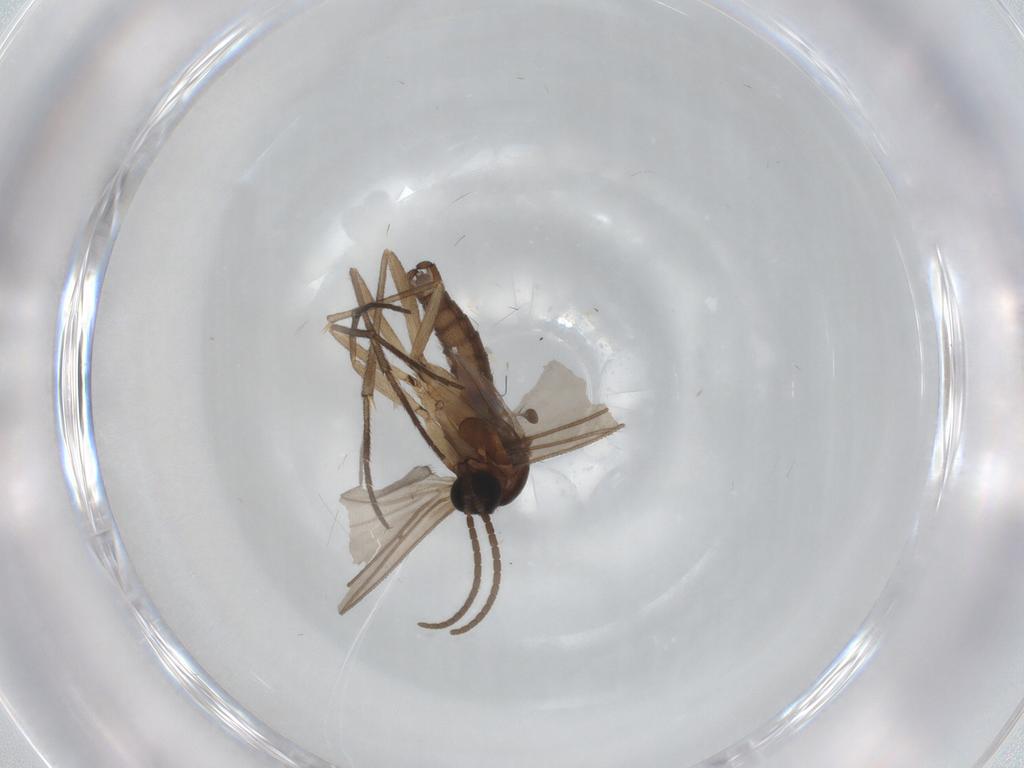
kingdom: Animalia
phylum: Arthropoda
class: Insecta
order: Diptera
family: Sciaridae
